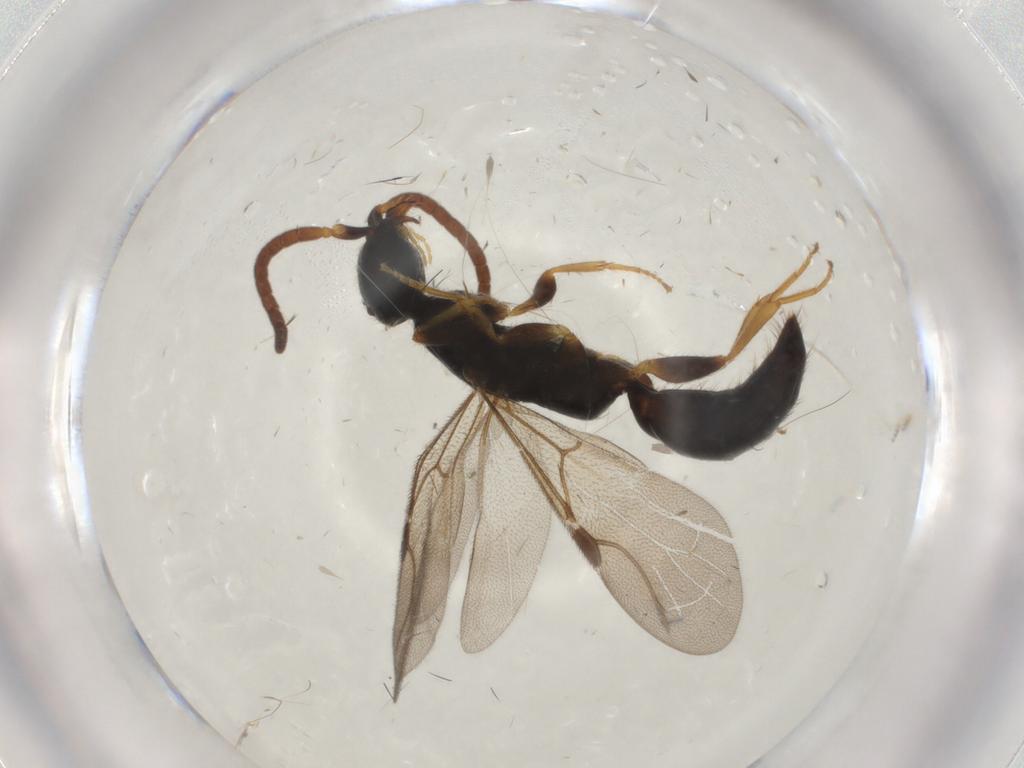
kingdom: Animalia
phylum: Arthropoda
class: Insecta
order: Hymenoptera
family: Bethylidae
